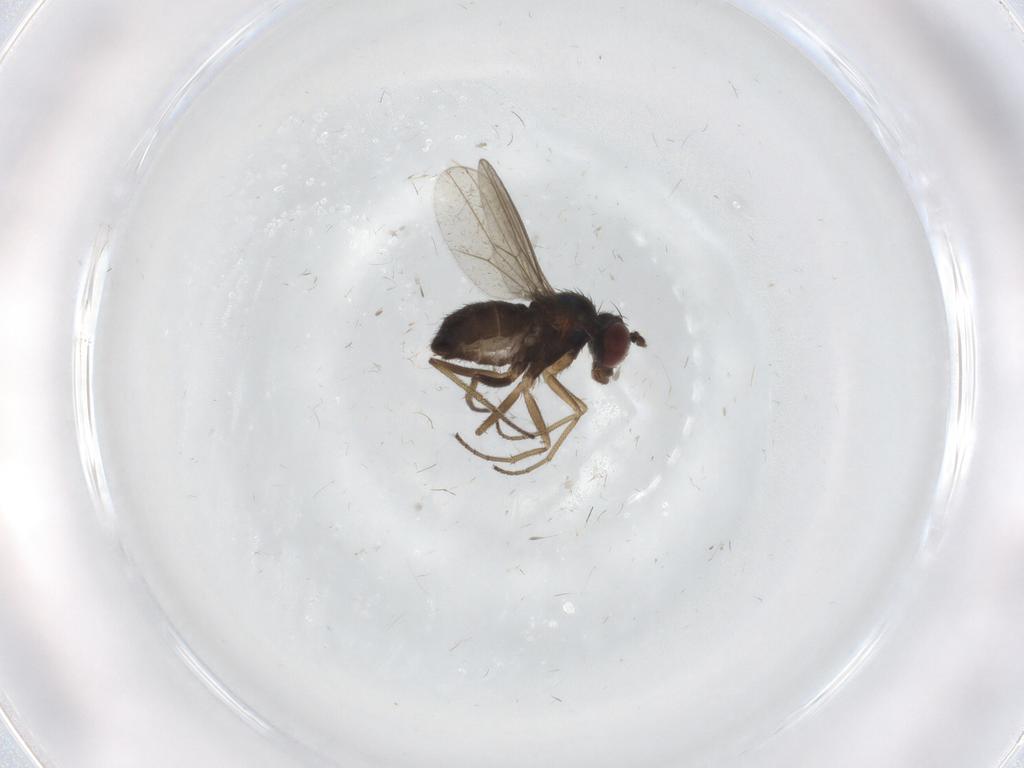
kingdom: Animalia
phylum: Arthropoda
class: Insecta
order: Diptera
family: Dolichopodidae
